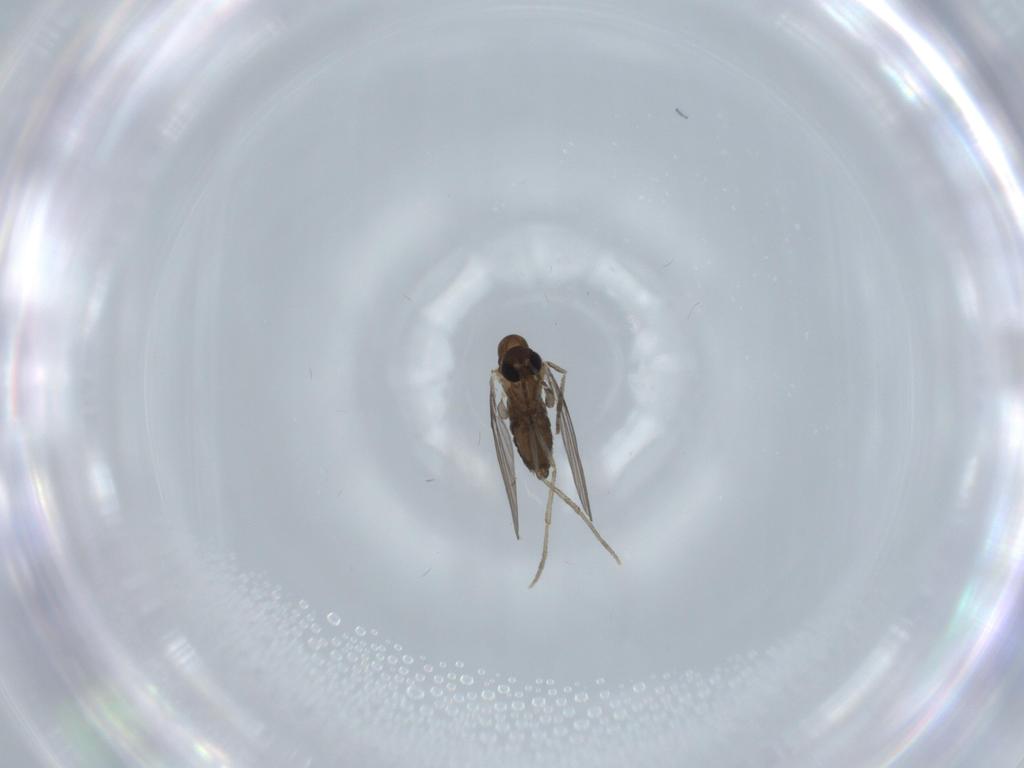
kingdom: Animalia
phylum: Arthropoda
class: Insecta
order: Diptera
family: Psychodidae
